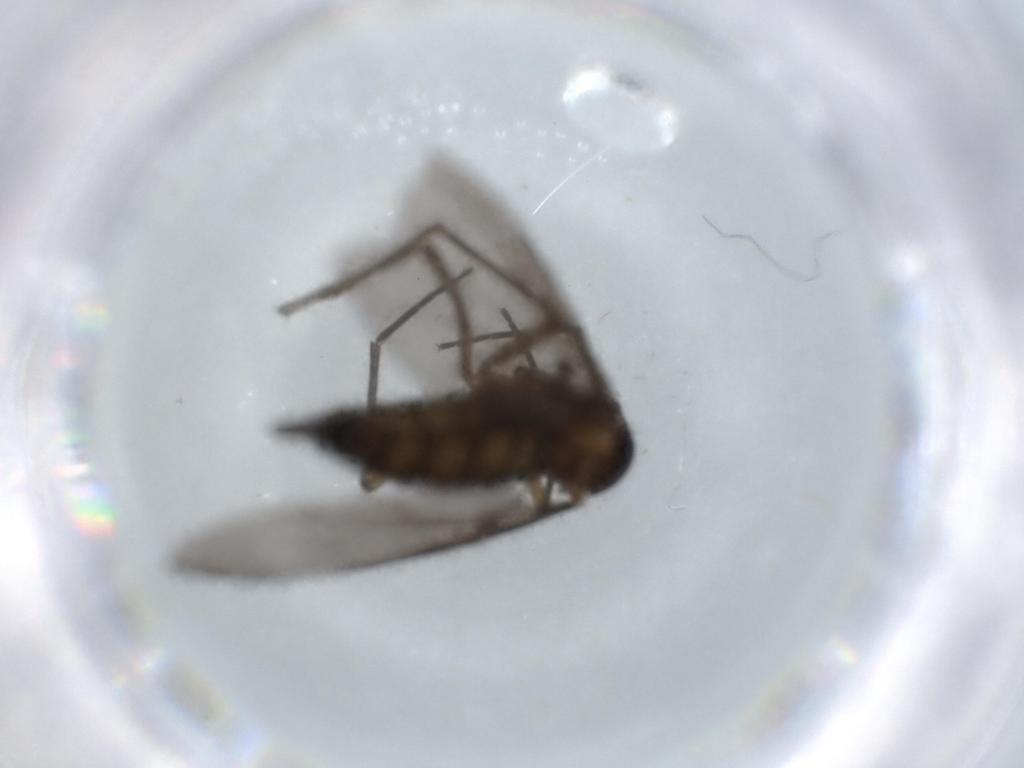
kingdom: Animalia
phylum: Arthropoda
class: Insecta
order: Diptera
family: Sciaridae
